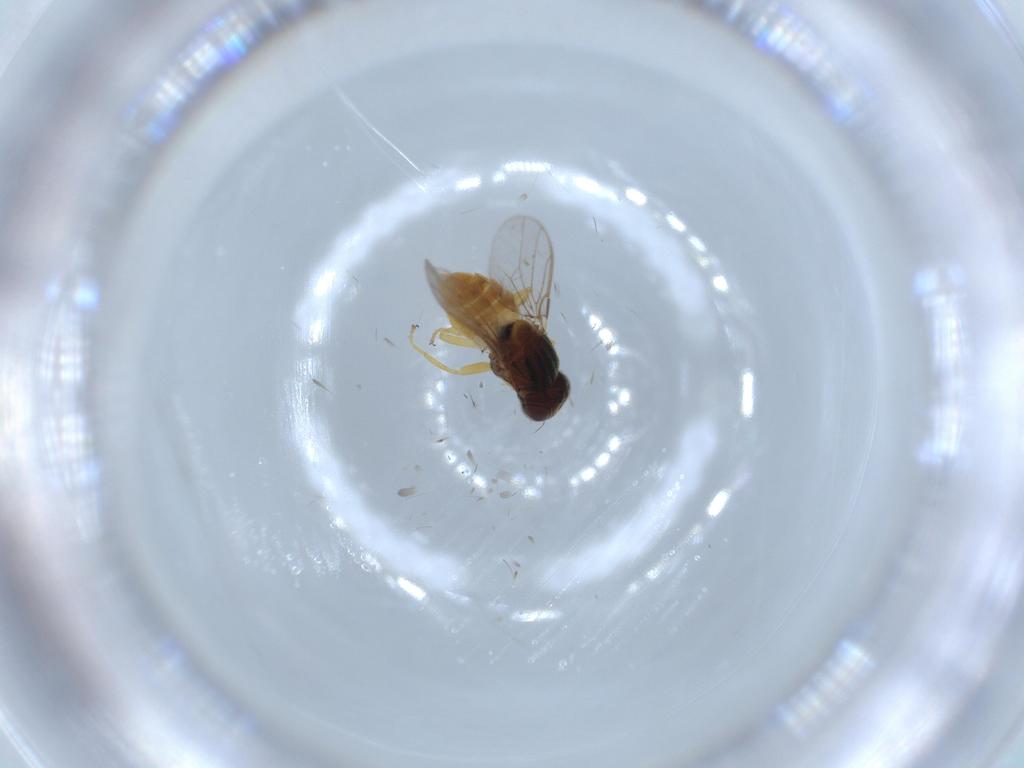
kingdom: Animalia
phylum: Arthropoda
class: Insecta
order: Diptera
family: Chloropidae
